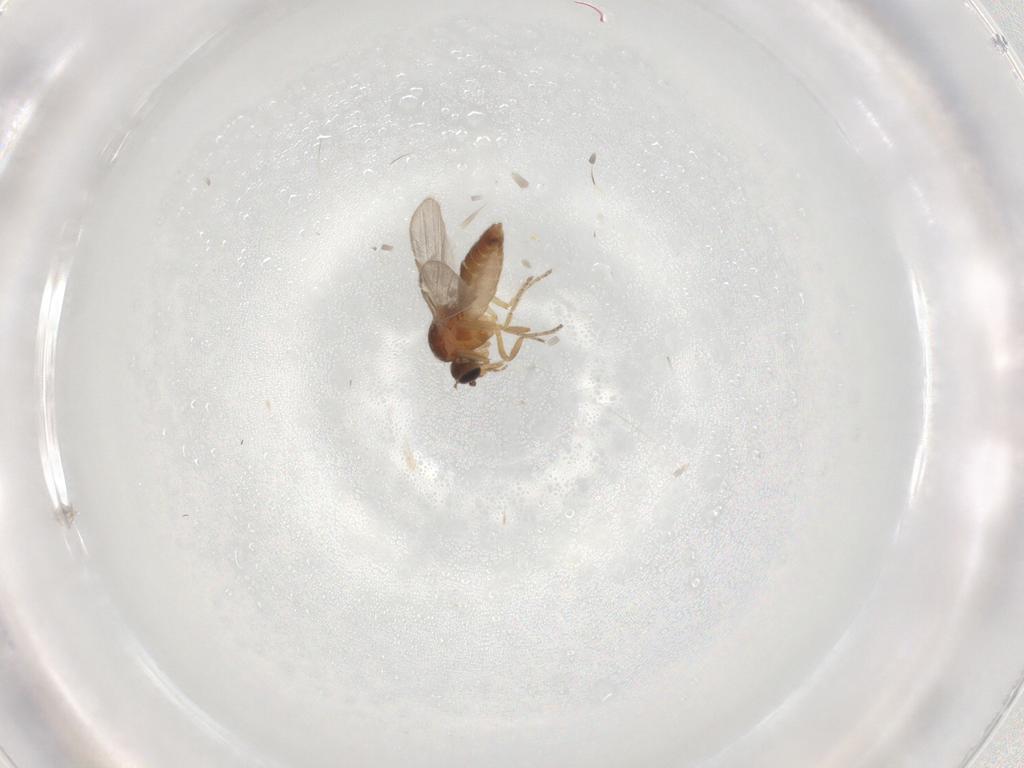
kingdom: Animalia
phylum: Arthropoda
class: Insecta
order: Diptera
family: Ceratopogonidae
